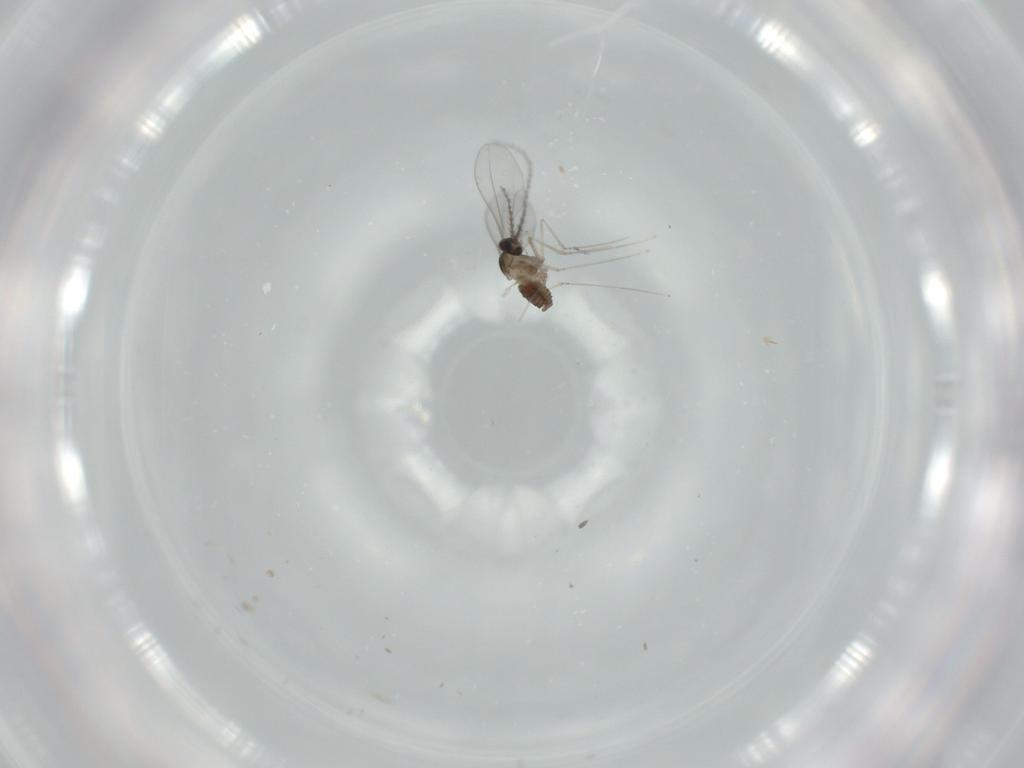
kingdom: Animalia
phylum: Arthropoda
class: Insecta
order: Diptera
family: Cecidomyiidae
